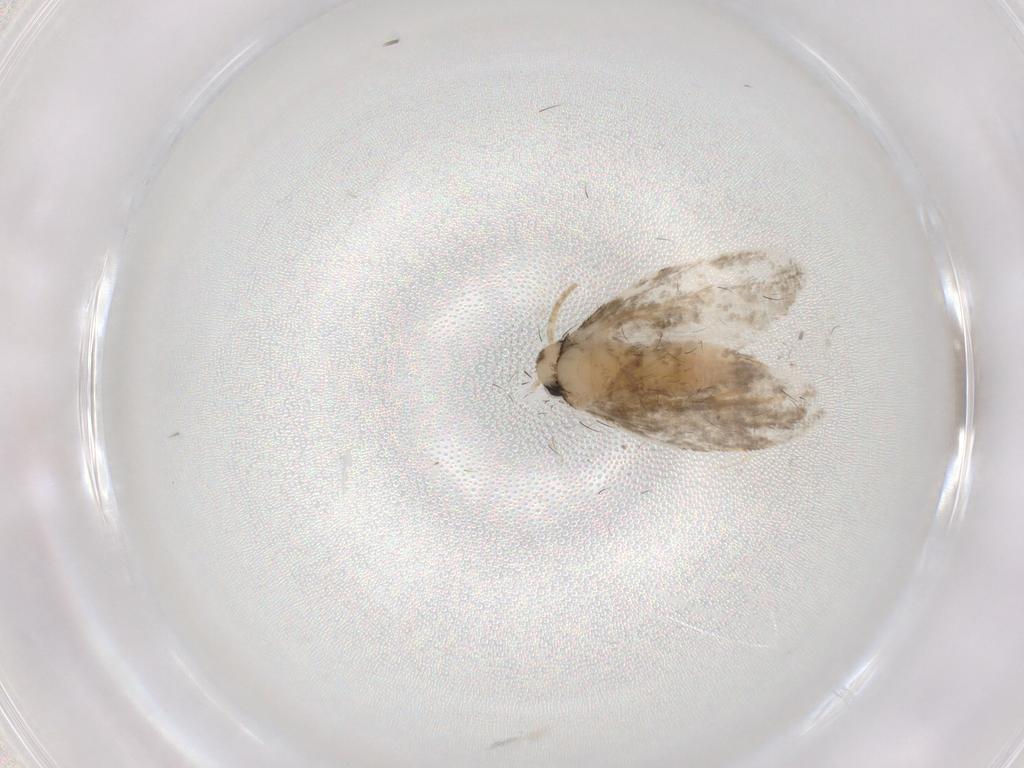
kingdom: Animalia
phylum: Arthropoda
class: Insecta
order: Lepidoptera
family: Psychidae
